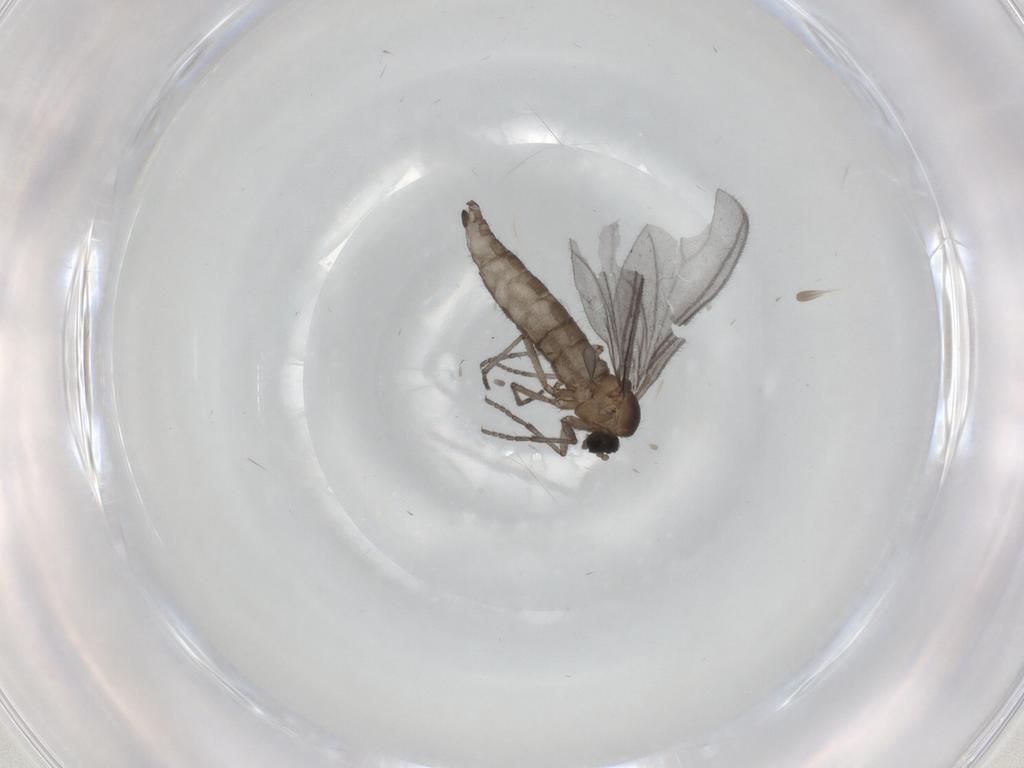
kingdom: Animalia
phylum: Arthropoda
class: Insecta
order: Diptera
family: Sciaridae
